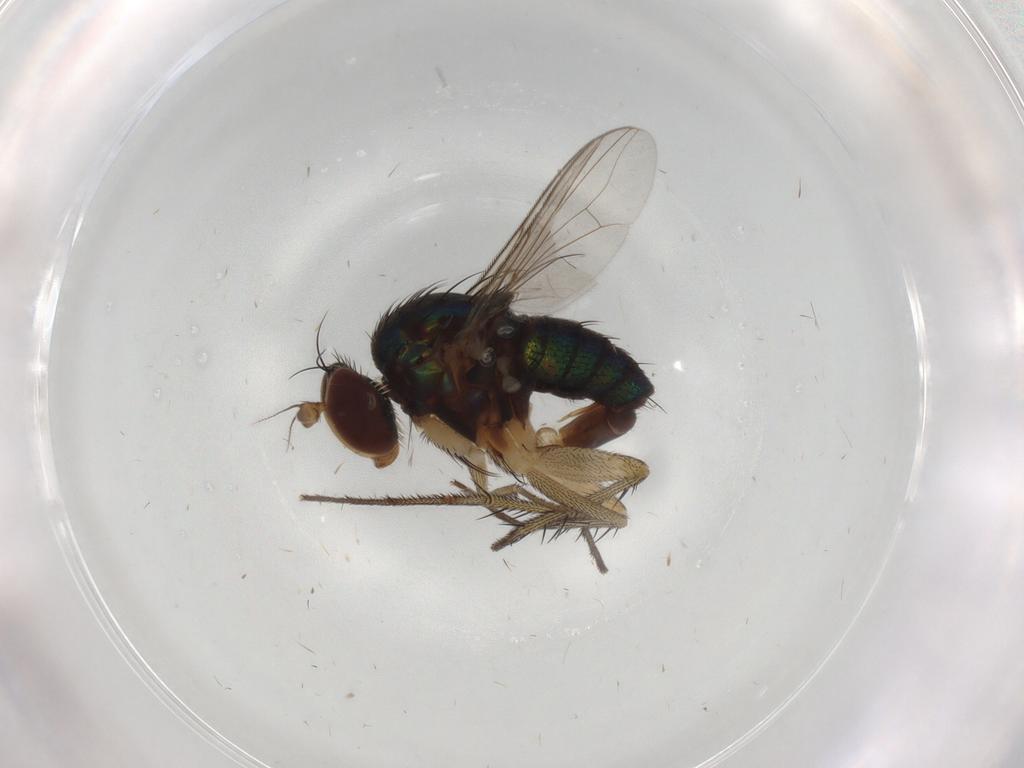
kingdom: Animalia
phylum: Arthropoda
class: Insecta
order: Diptera
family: Dolichopodidae
